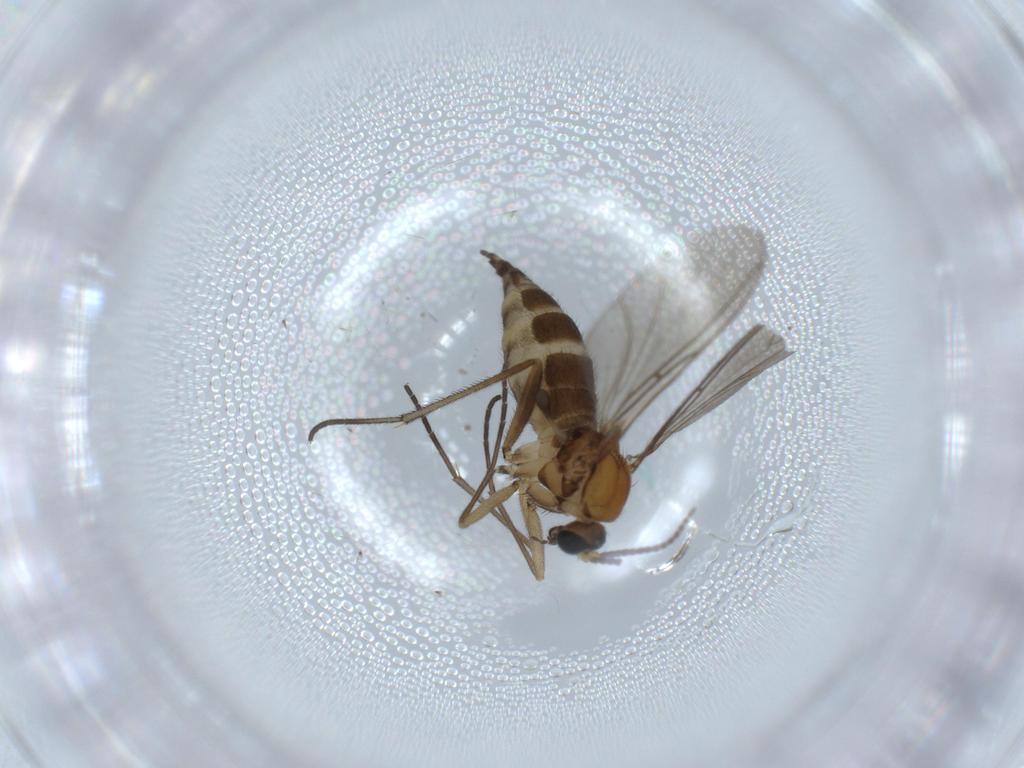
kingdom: Animalia
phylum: Arthropoda
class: Insecta
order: Diptera
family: Sciaridae
